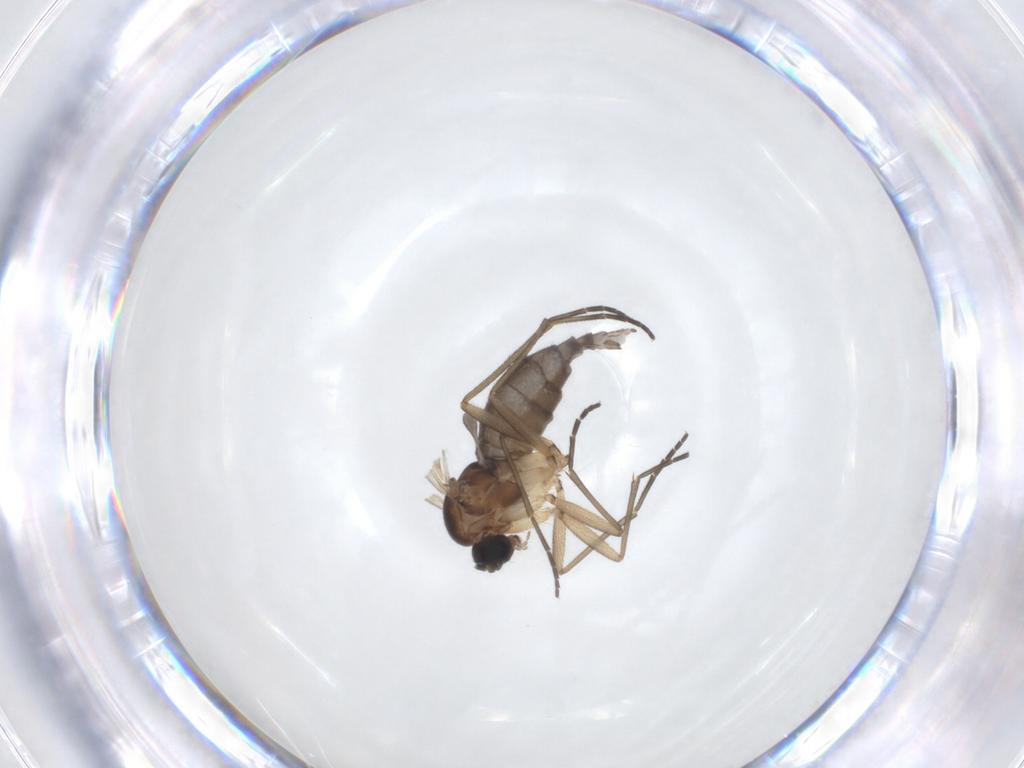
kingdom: Animalia
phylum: Arthropoda
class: Insecta
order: Diptera
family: Sciaridae
